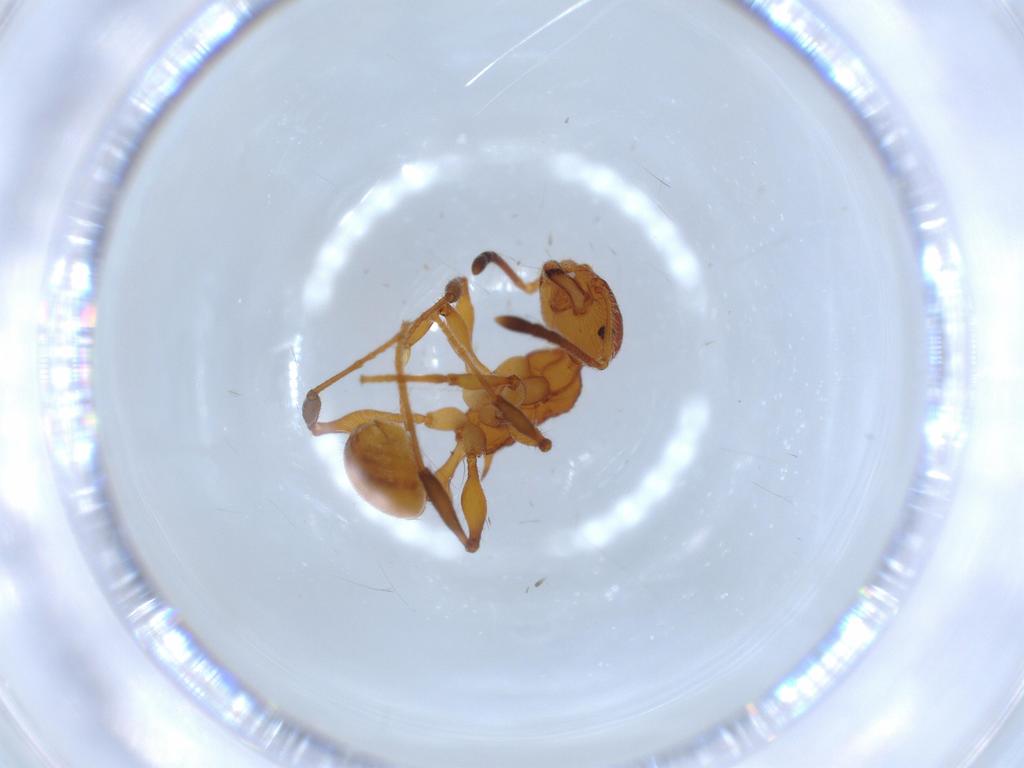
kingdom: Animalia
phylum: Arthropoda
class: Insecta
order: Hymenoptera
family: Formicidae
